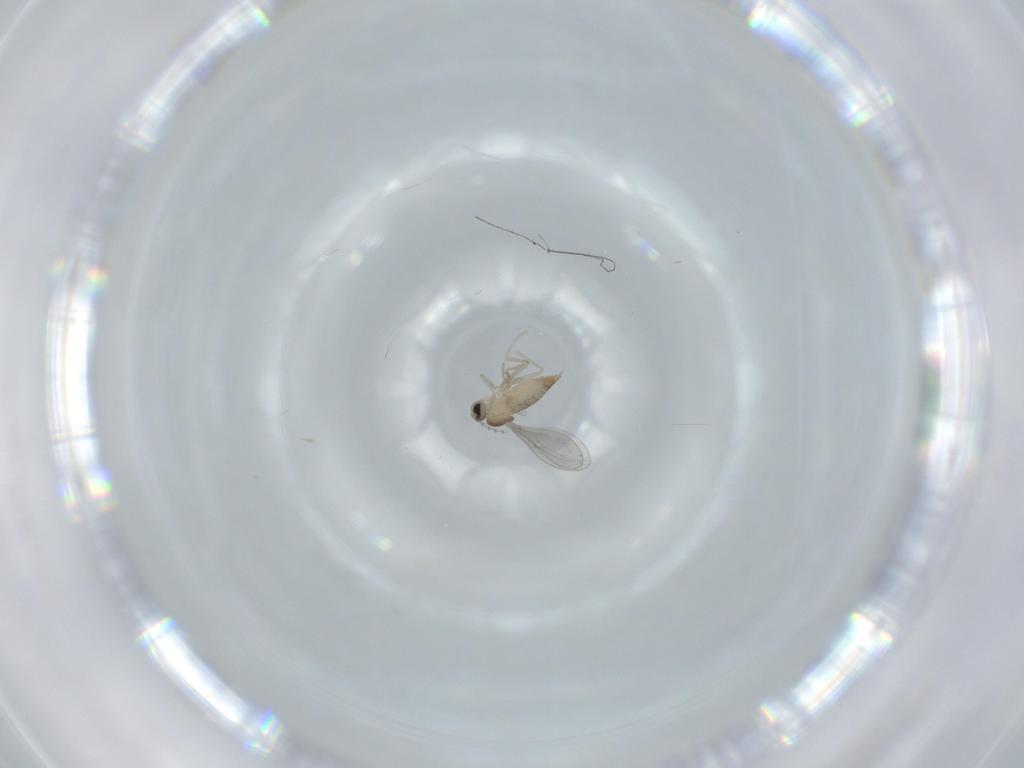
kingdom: Animalia
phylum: Arthropoda
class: Insecta
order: Diptera
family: Cecidomyiidae
